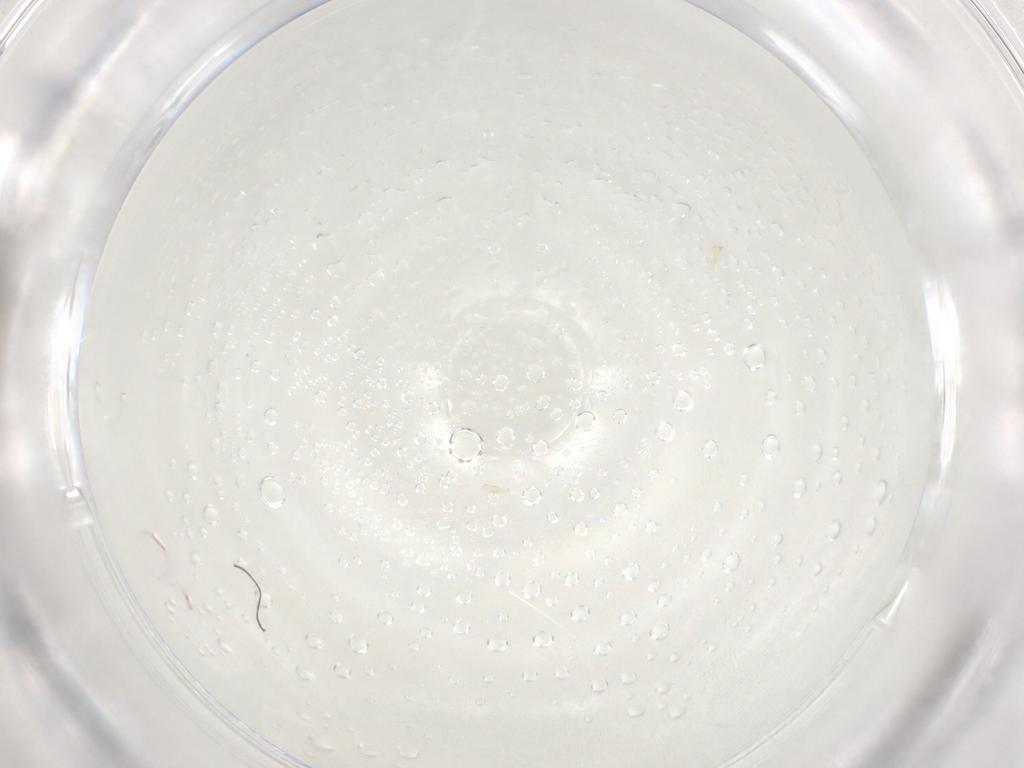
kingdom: Animalia
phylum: Arthropoda
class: Insecta
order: Diptera
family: Ceratopogonidae
